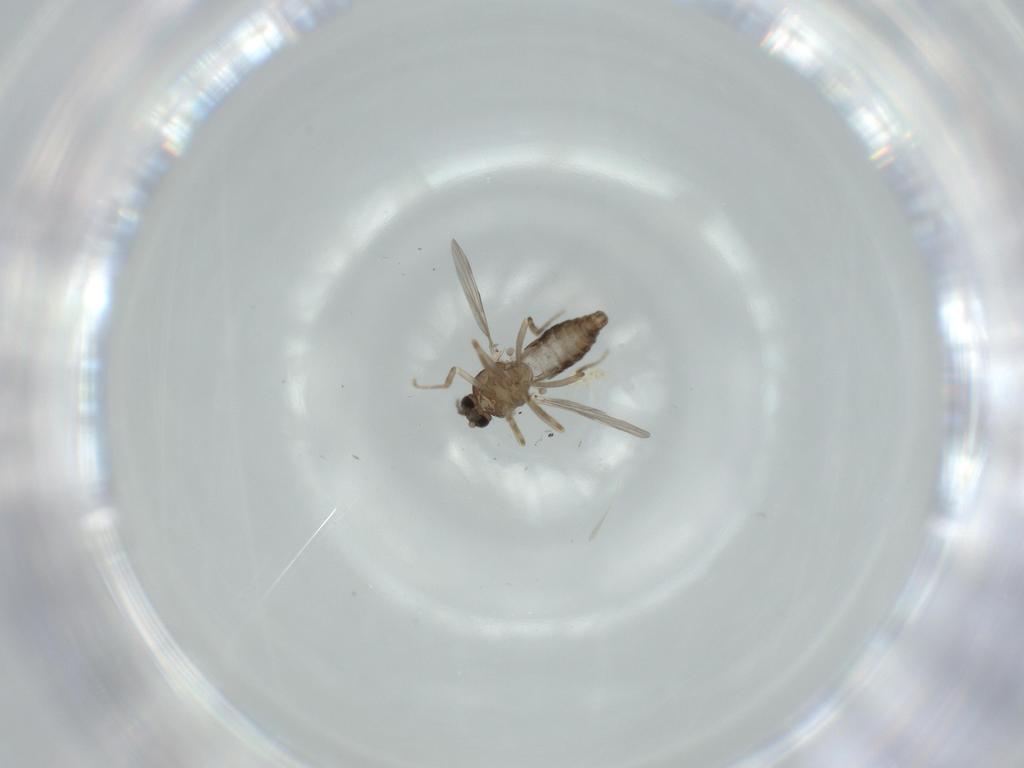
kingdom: Animalia
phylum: Arthropoda
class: Insecta
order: Diptera
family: Ceratopogonidae
